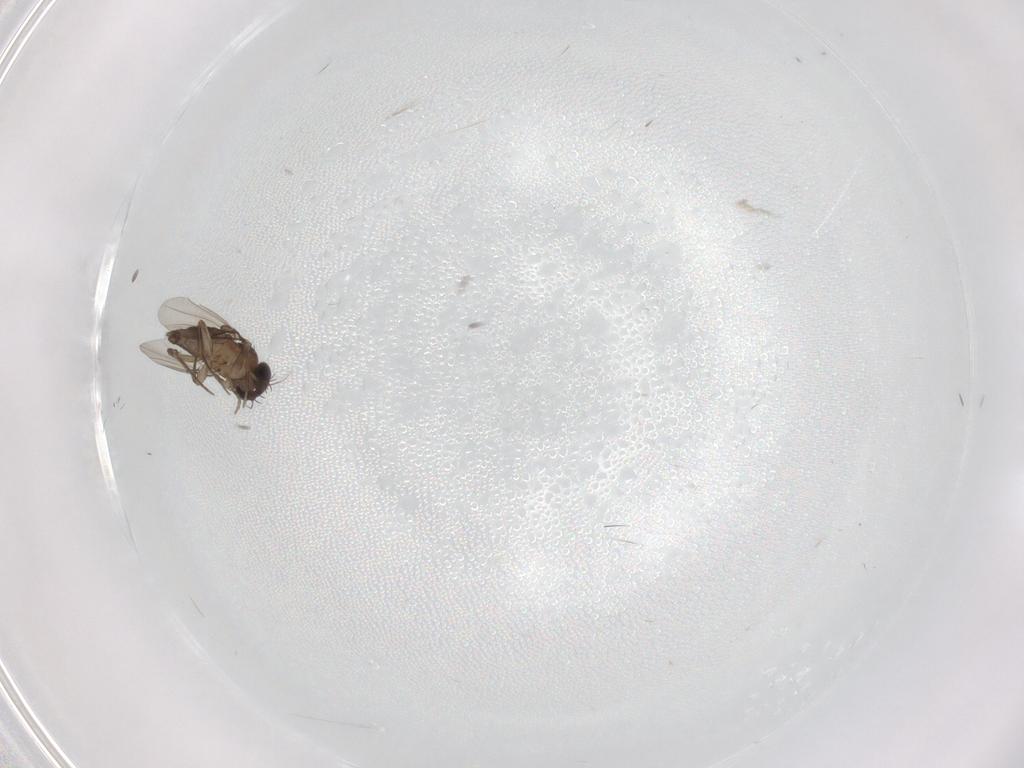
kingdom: Animalia
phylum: Arthropoda
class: Insecta
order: Diptera
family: Phoridae
